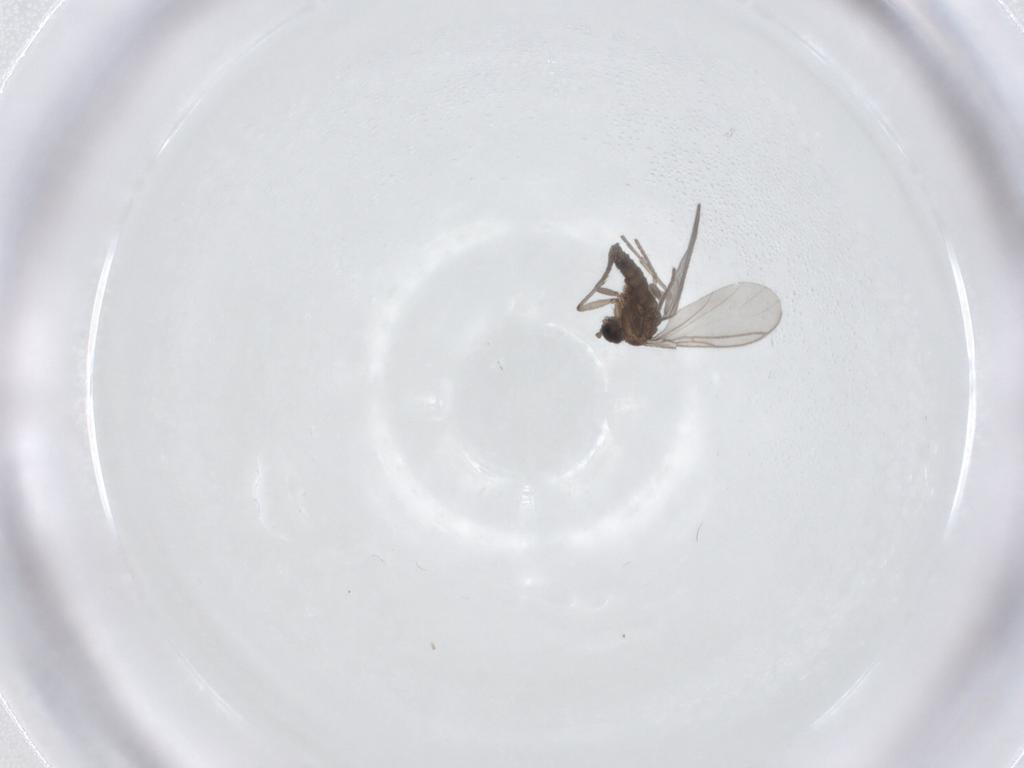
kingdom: Animalia
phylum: Arthropoda
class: Insecta
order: Diptera
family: Sciaridae
